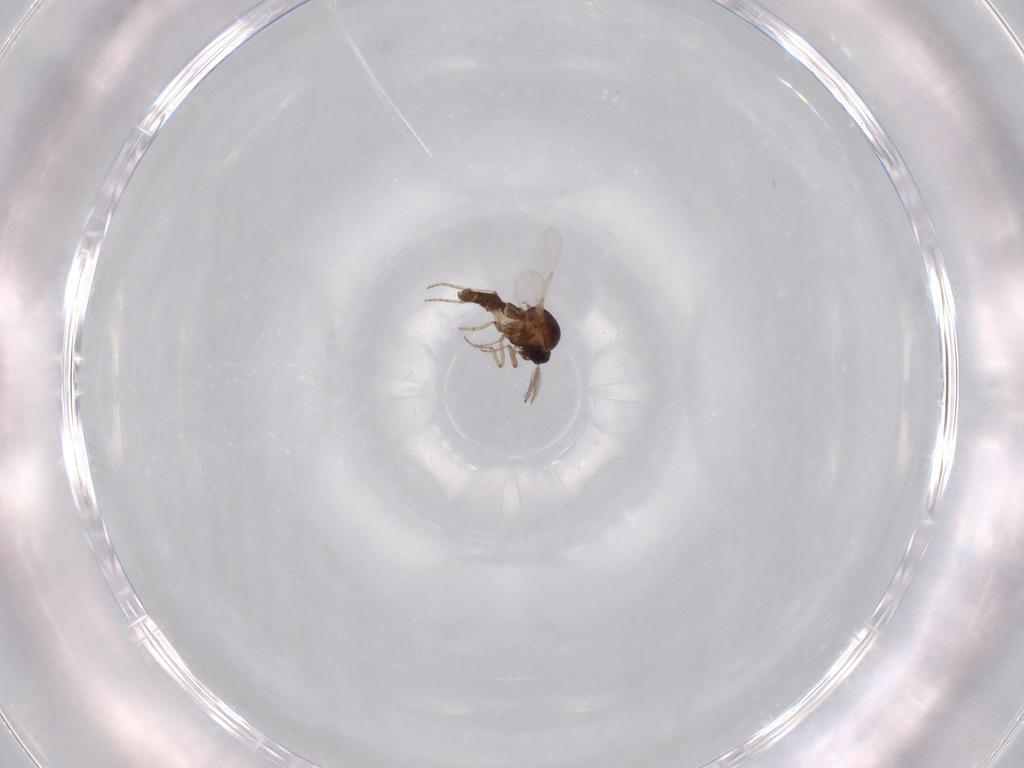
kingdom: Animalia
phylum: Arthropoda
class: Insecta
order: Diptera
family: Ceratopogonidae
